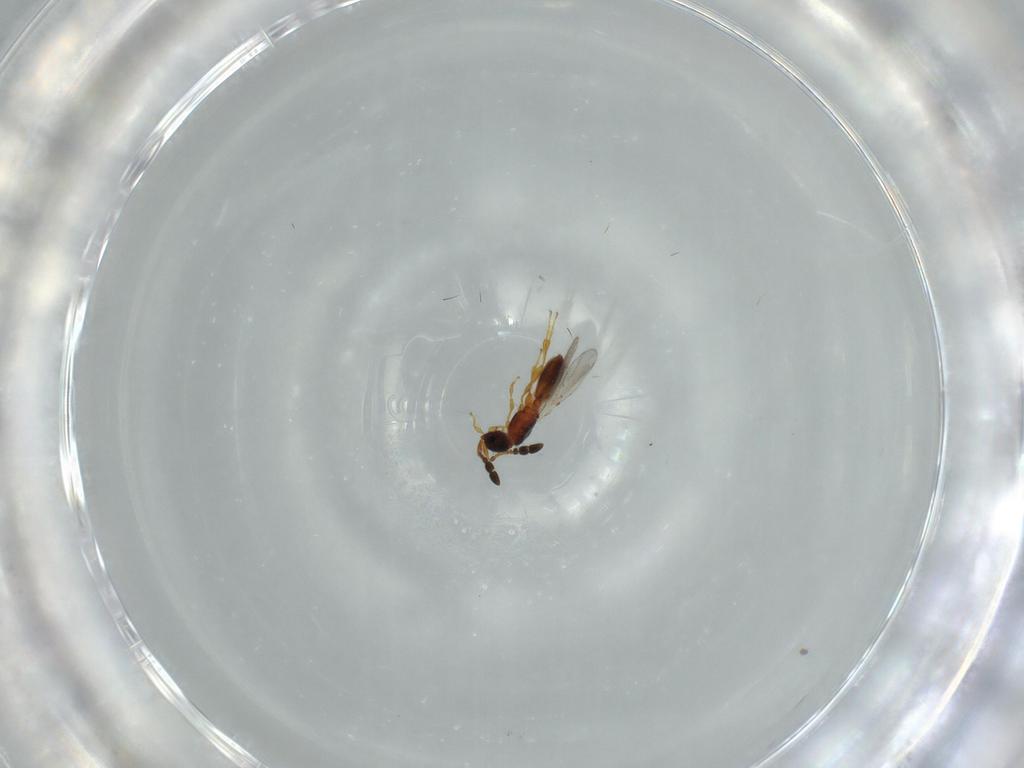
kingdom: Animalia
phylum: Arthropoda
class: Insecta
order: Hymenoptera
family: Diapriidae
